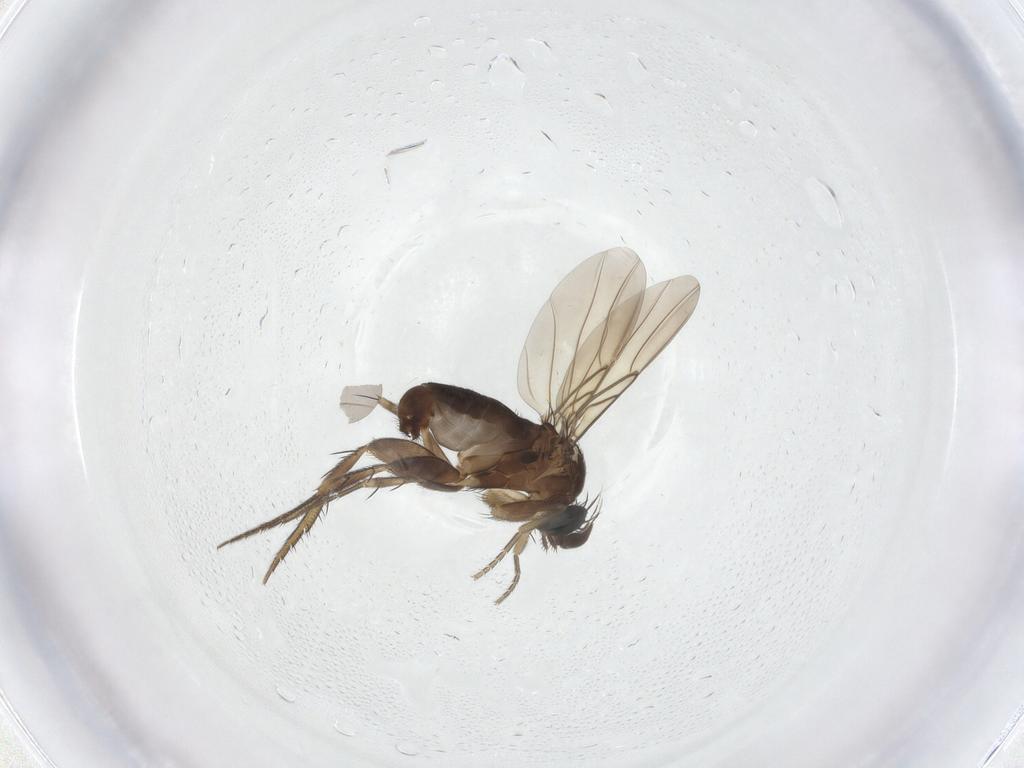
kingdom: Animalia
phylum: Arthropoda
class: Insecta
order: Diptera
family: Phoridae
